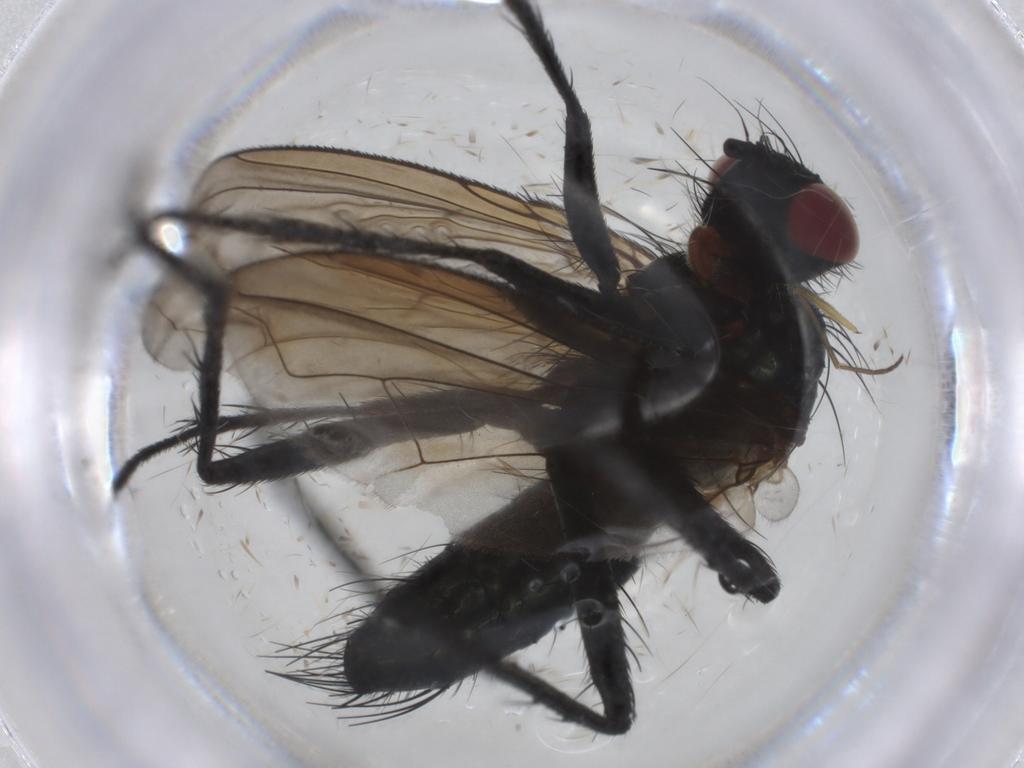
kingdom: Animalia
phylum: Arthropoda
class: Insecta
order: Diptera
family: Tachinidae
